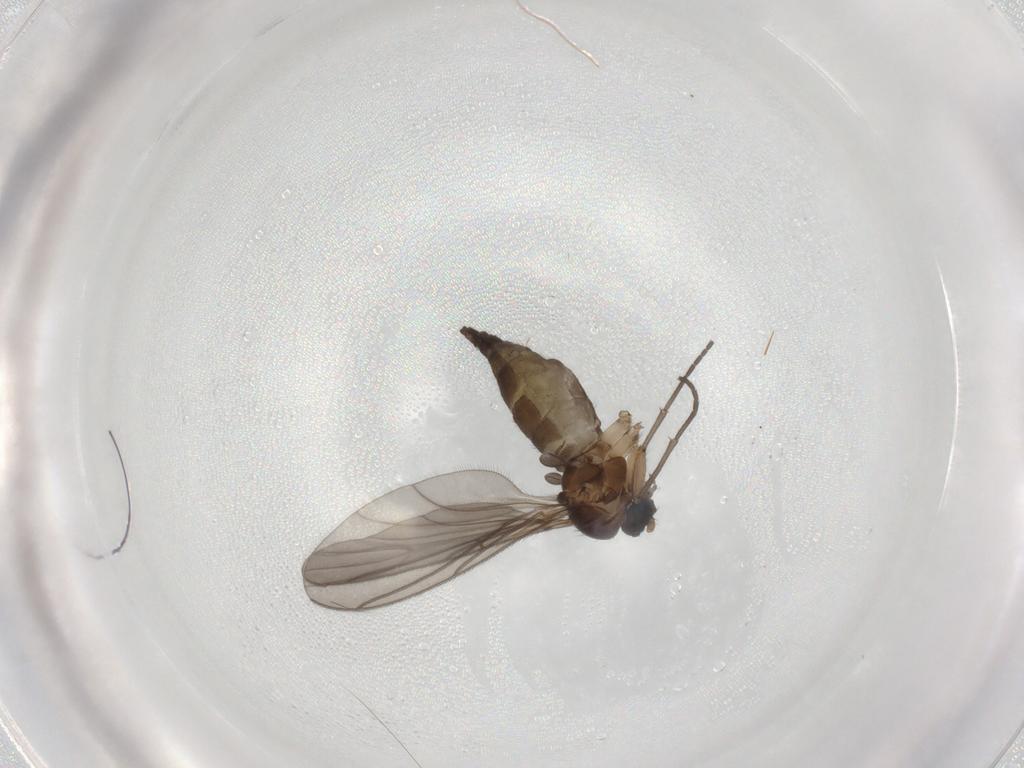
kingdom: Animalia
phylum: Arthropoda
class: Insecta
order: Diptera
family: Sciaridae
